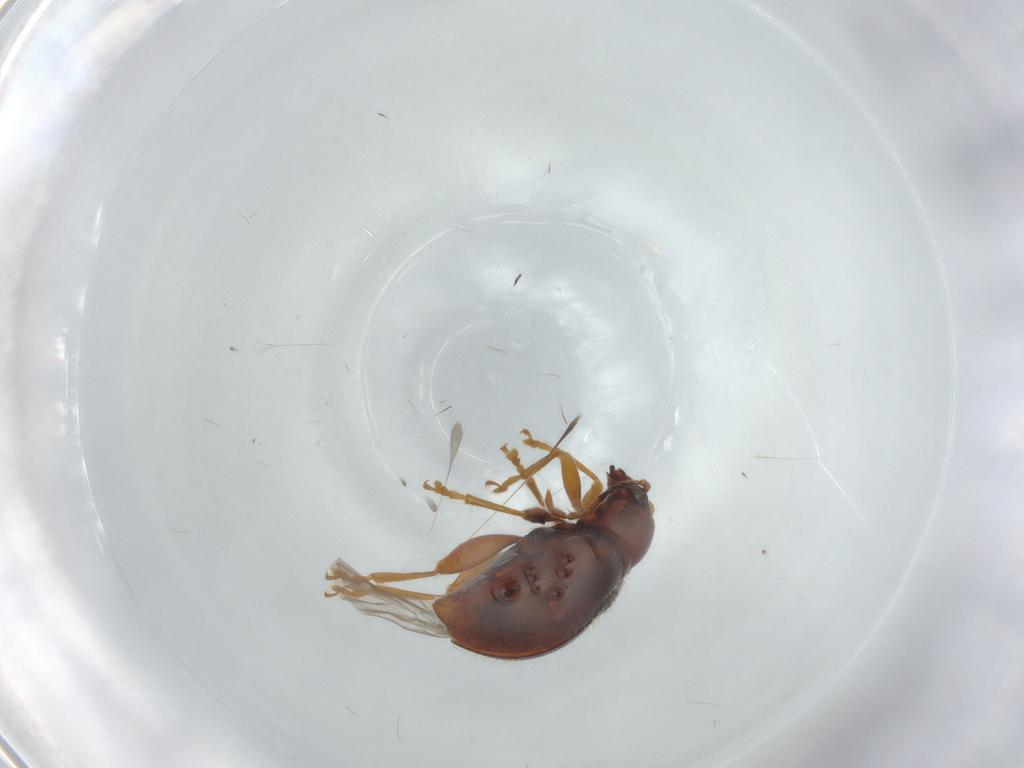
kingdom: Animalia
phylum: Arthropoda
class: Insecta
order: Coleoptera
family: Chrysomelidae
